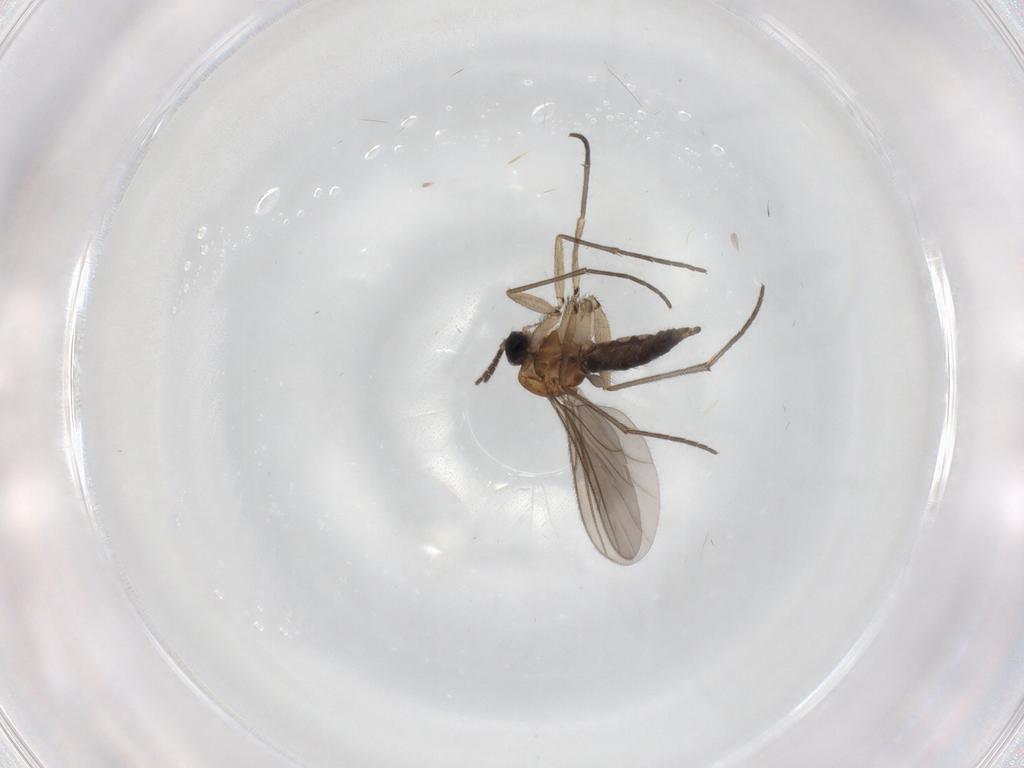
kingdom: Animalia
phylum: Arthropoda
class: Insecta
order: Diptera
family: Sciaridae
